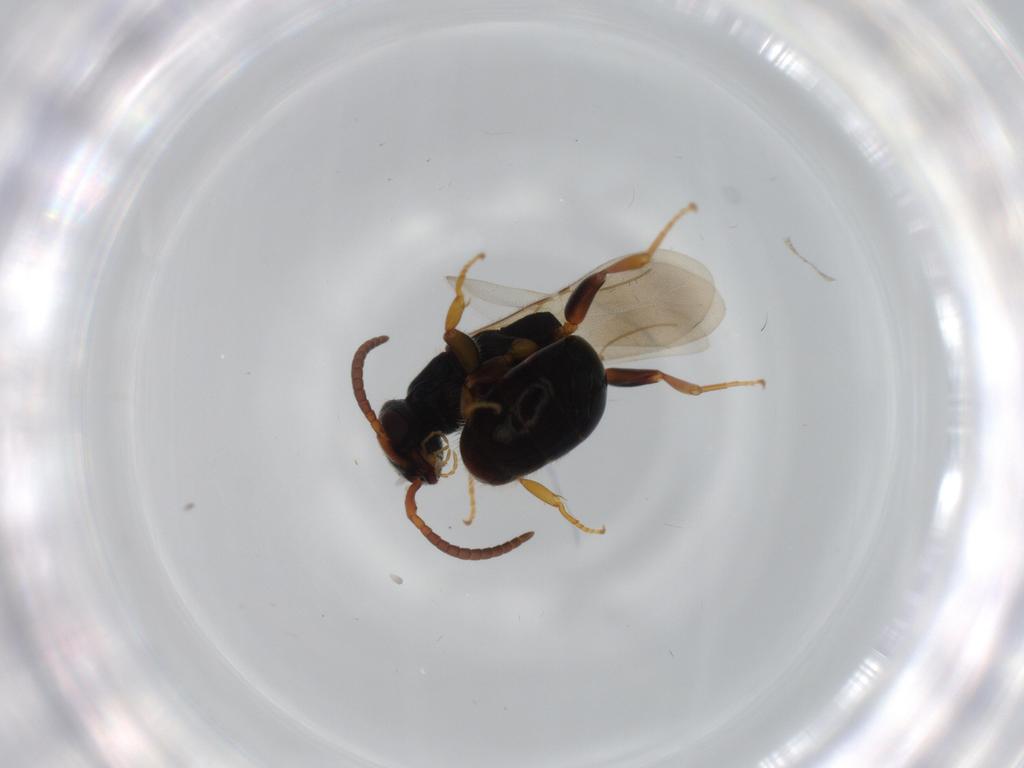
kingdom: Animalia
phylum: Arthropoda
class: Insecta
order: Hymenoptera
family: Bethylidae
